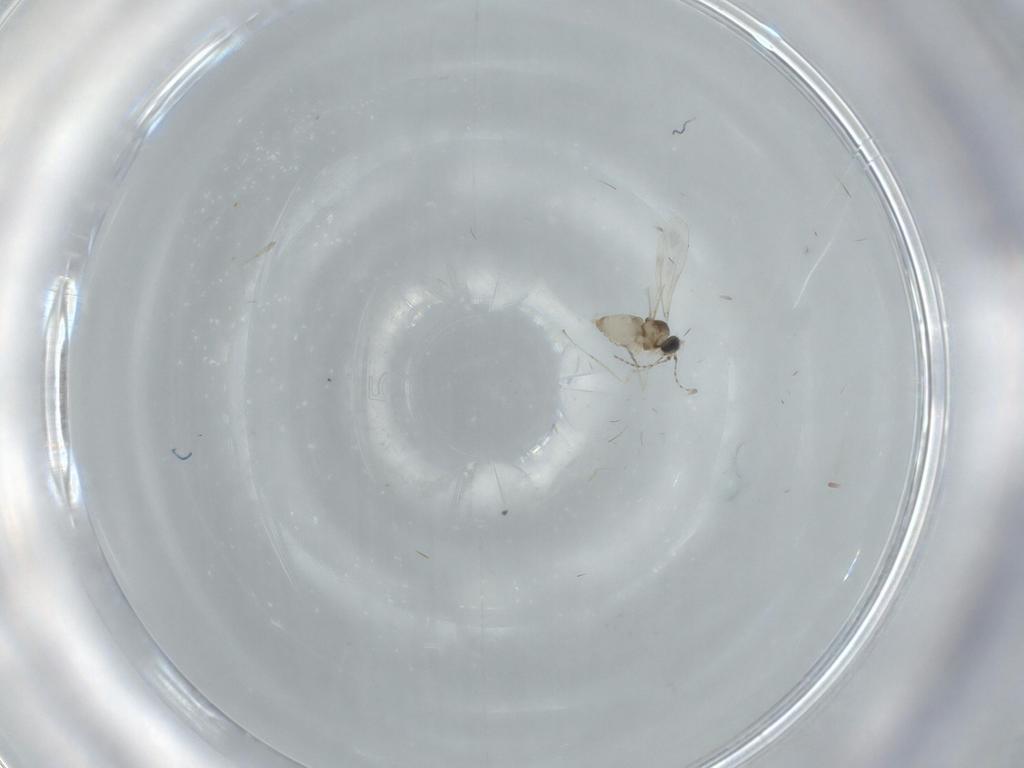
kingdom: Animalia
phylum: Arthropoda
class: Insecta
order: Diptera
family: Cecidomyiidae
